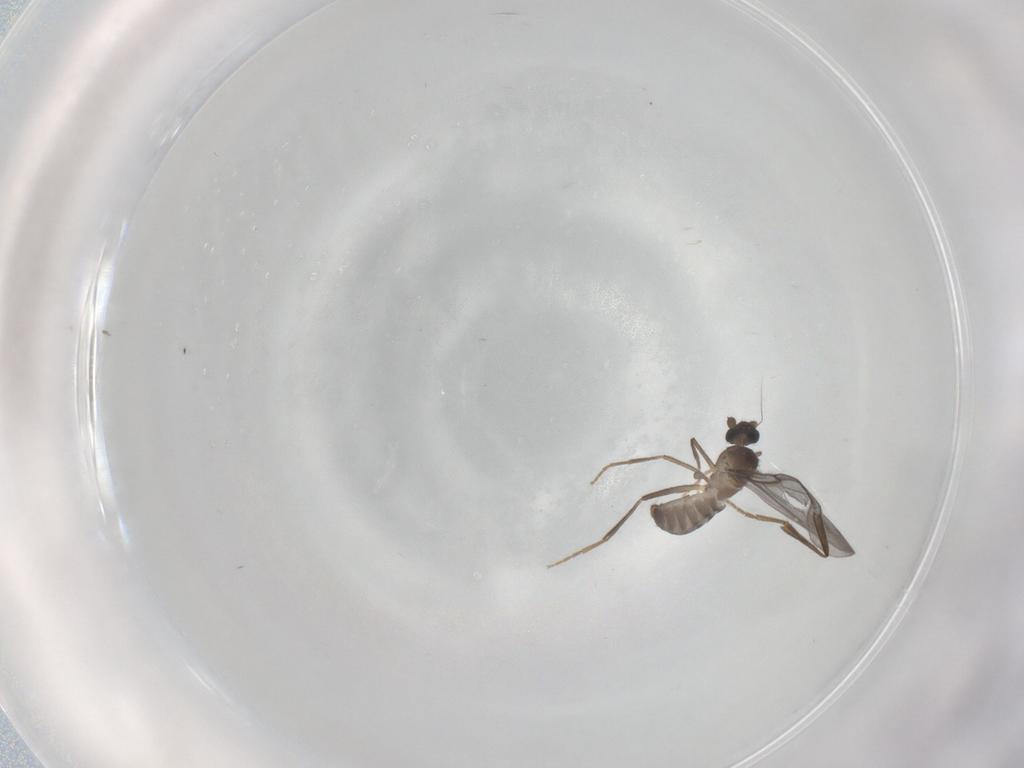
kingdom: Animalia
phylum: Arthropoda
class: Insecta
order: Diptera
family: Phoridae
